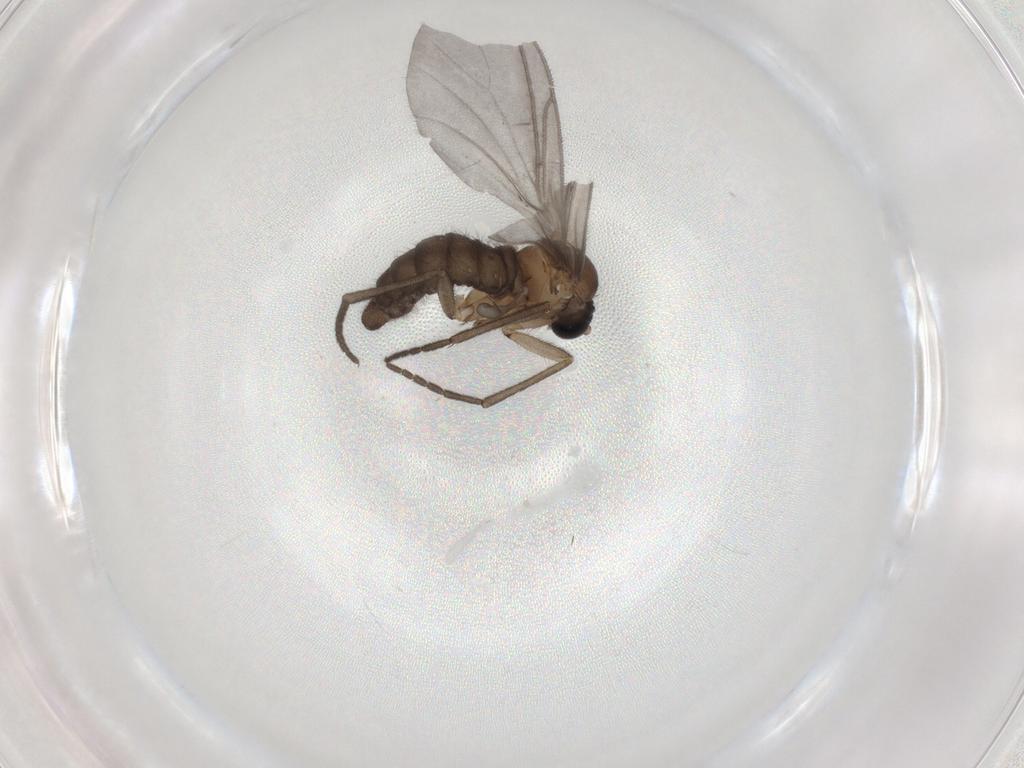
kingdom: Animalia
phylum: Arthropoda
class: Insecta
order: Diptera
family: Sciaridae
